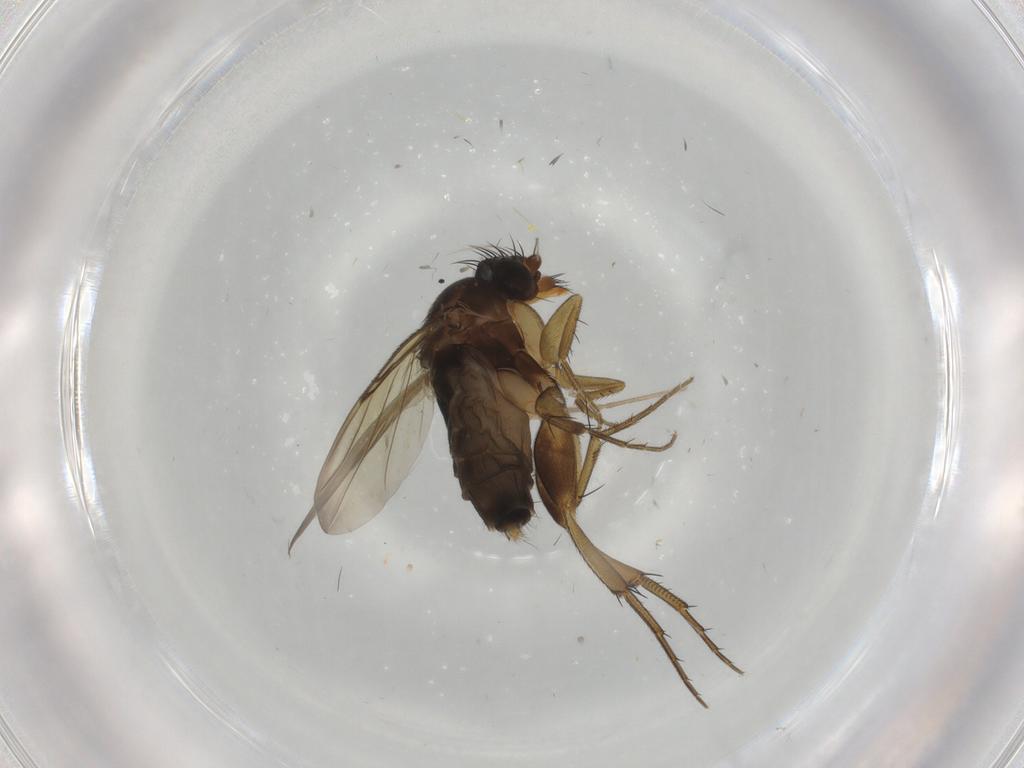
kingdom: Animalia
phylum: Arthropoda
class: Insecta
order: Diptera
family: Limoniidae
